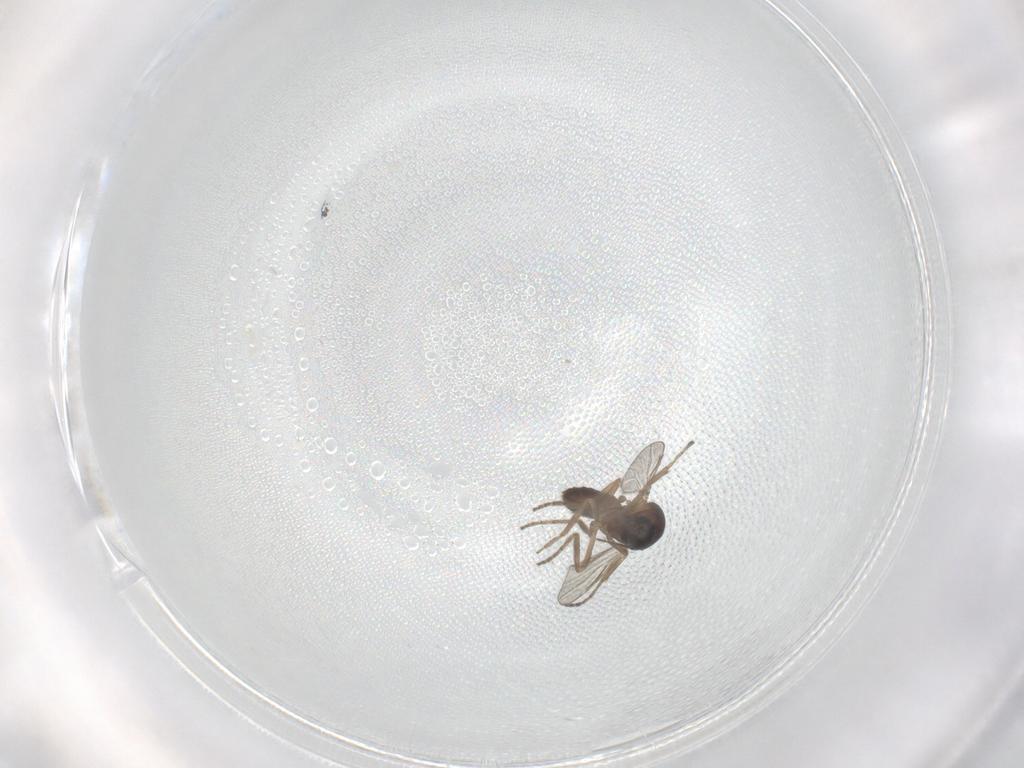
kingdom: Animalia
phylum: Arthropoda
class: Insecta
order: Diptera
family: Ceratopogonidae
